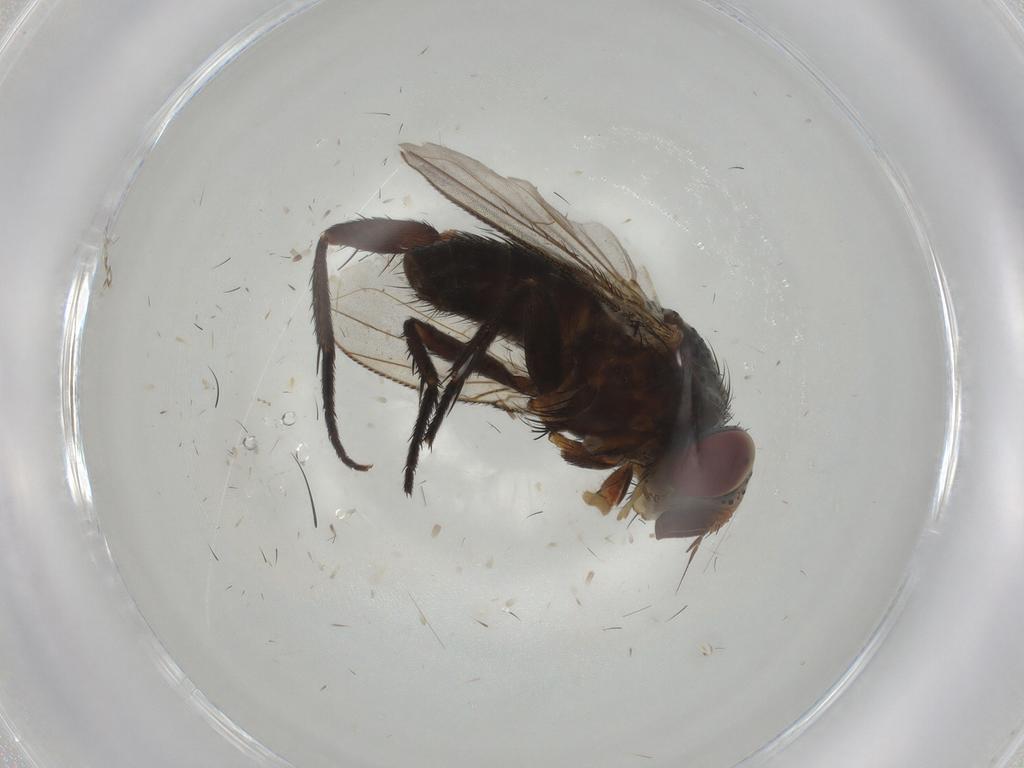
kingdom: Animalia
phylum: Arthropoda
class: Insecta
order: Diptera
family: Tachinidae
